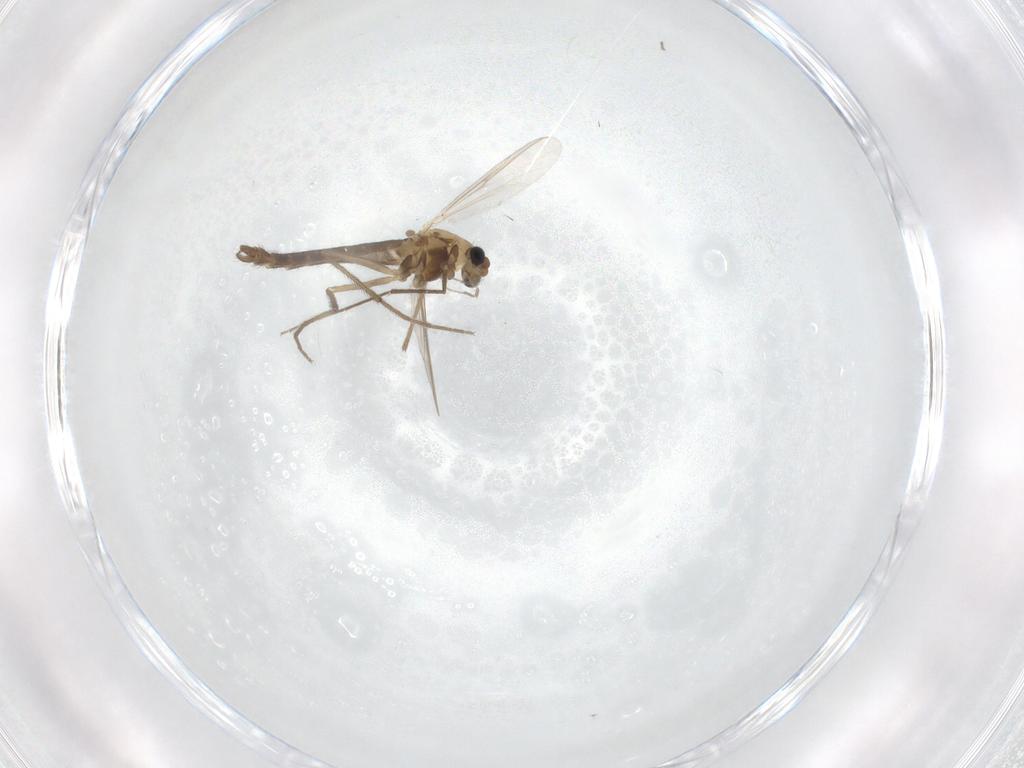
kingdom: Animalia
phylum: Arthropoda
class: Insecta
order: Diptera
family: Chironomidae
